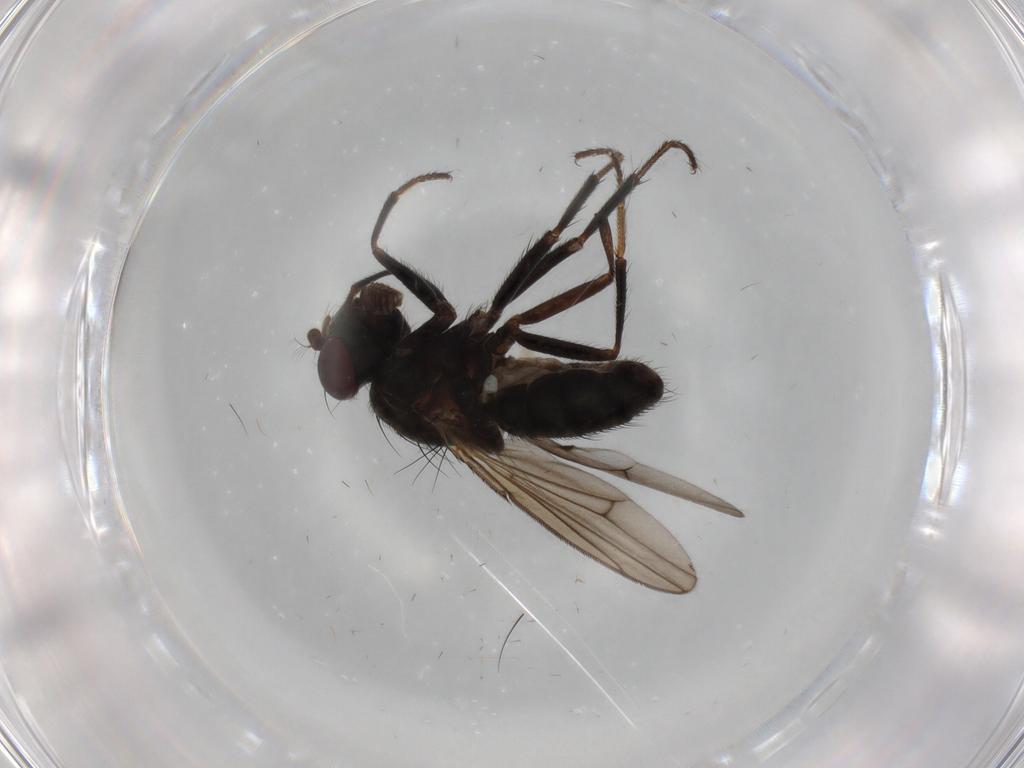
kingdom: Animalia
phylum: Arthropoda
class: Insecta
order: Diptera
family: Ephydridae
